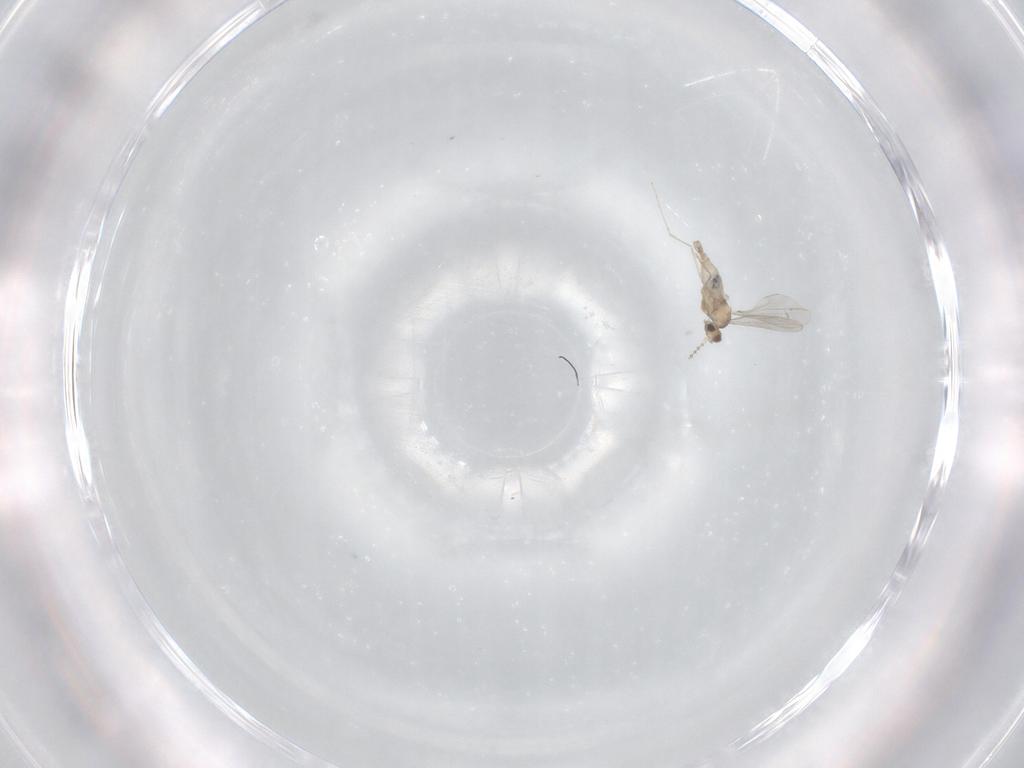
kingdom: Animalia
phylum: Arthropoda
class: Insecta
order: Diptera
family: Cecidomyiidae
